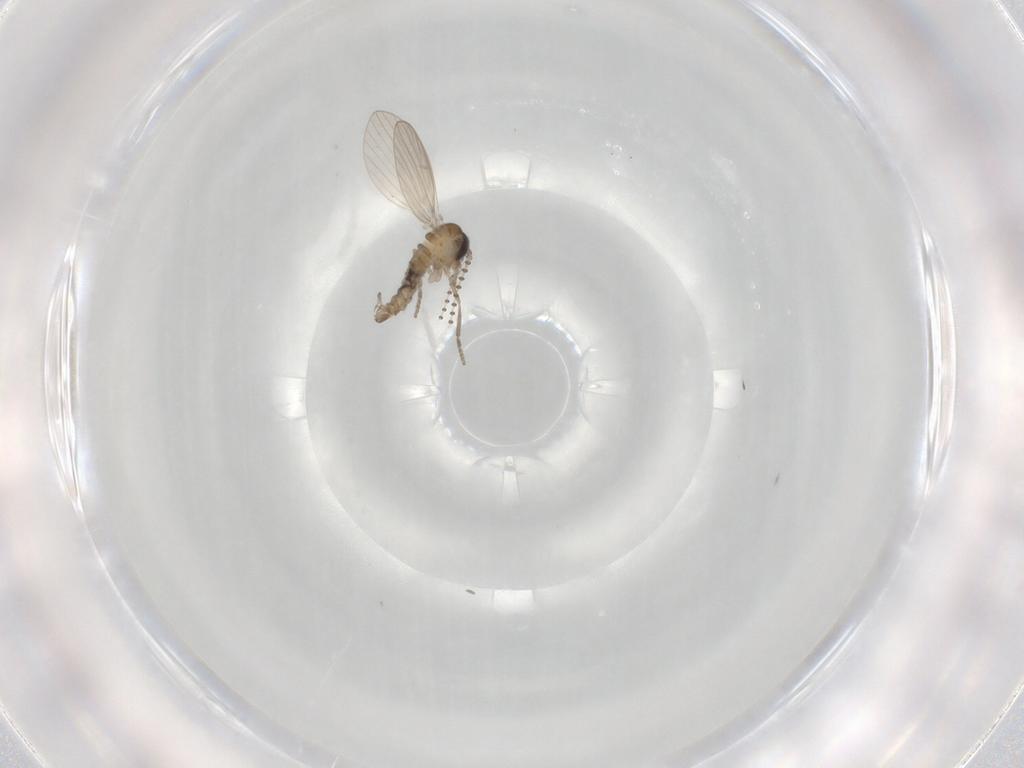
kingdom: Animalia
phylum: Arthropoda
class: Insecta
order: Diptera
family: Psychodidae
